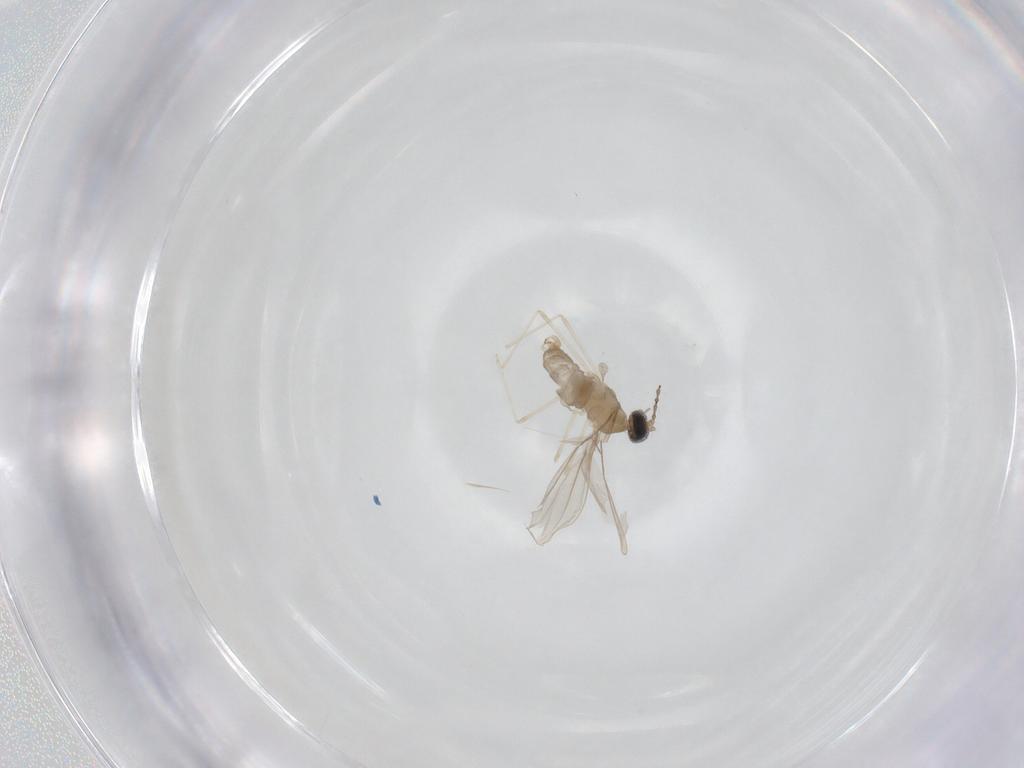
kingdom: Animalia
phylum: Arthropoda
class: Insecta
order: Diptera
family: Cecidomyiidae
